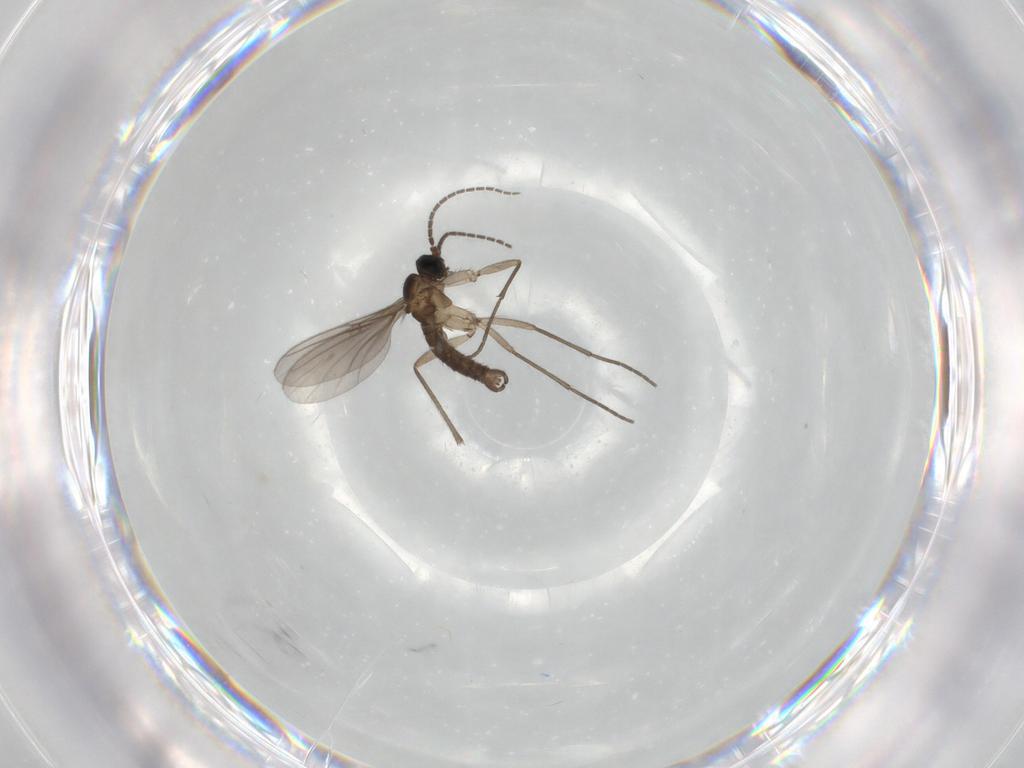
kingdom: Animalia
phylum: Arthropoda
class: Insecta
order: Diptera
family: Sciaridae
